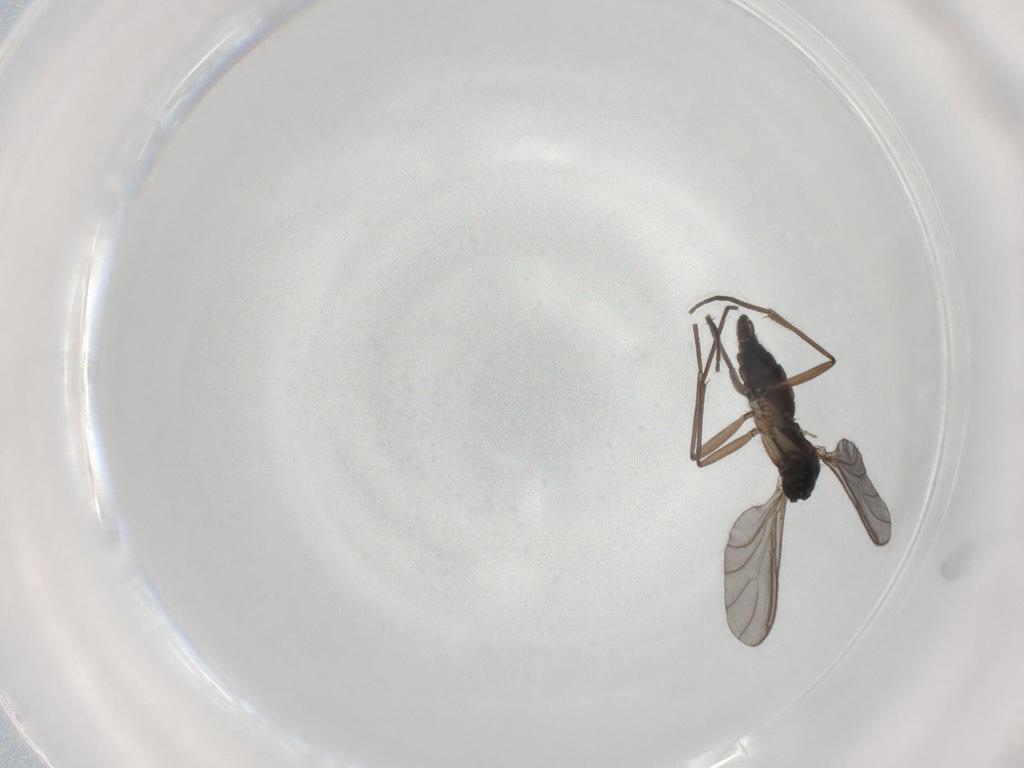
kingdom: Animalia
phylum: Arthropoda
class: Insecta
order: Diptera
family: Sciaridae
